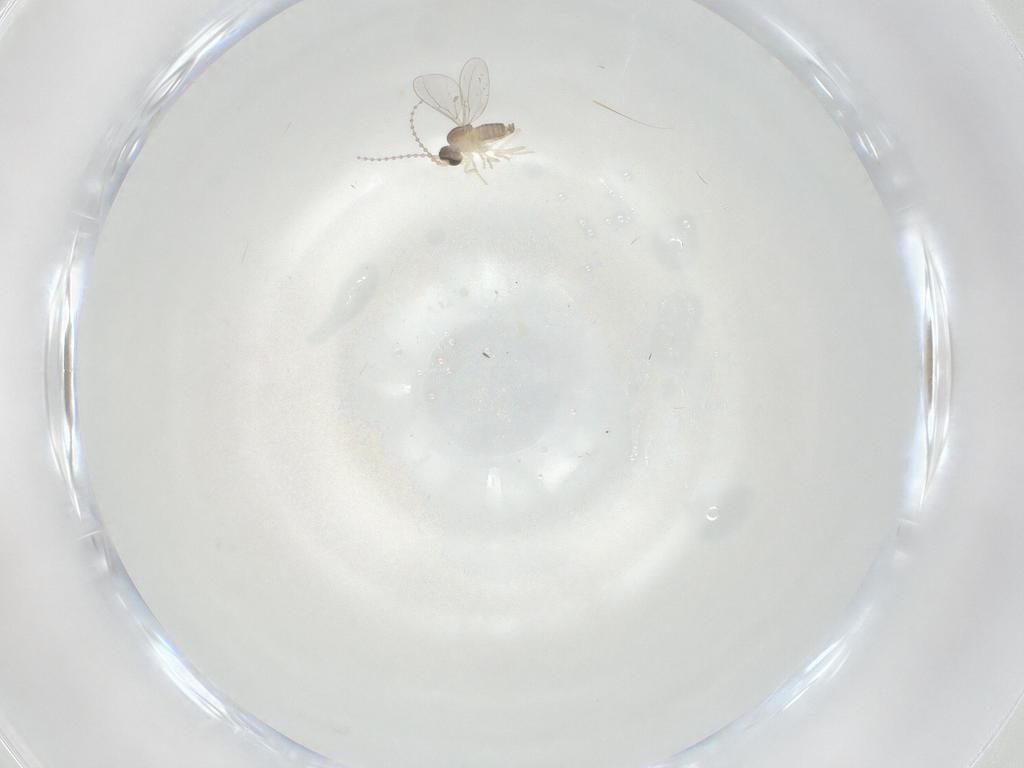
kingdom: Animalia
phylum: Arthropoda
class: Insecta
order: Diptera
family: Cecidomyiidae
